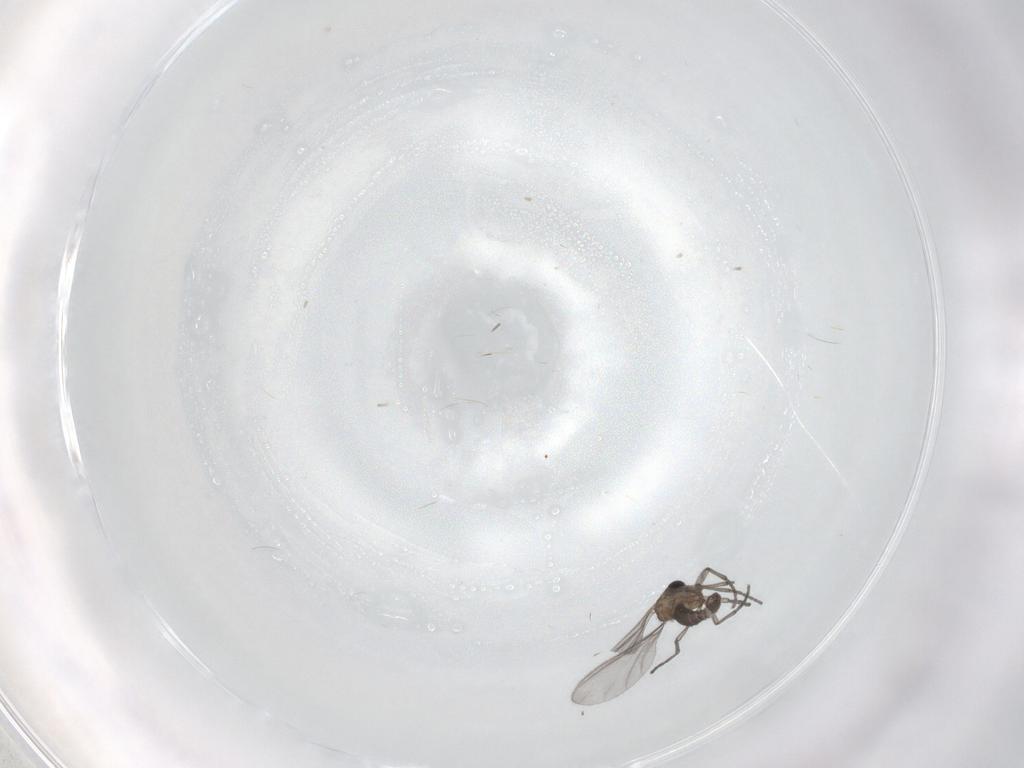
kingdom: Animalia
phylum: Arthropoda
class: Insecta
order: Diptera
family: Sciaridae
